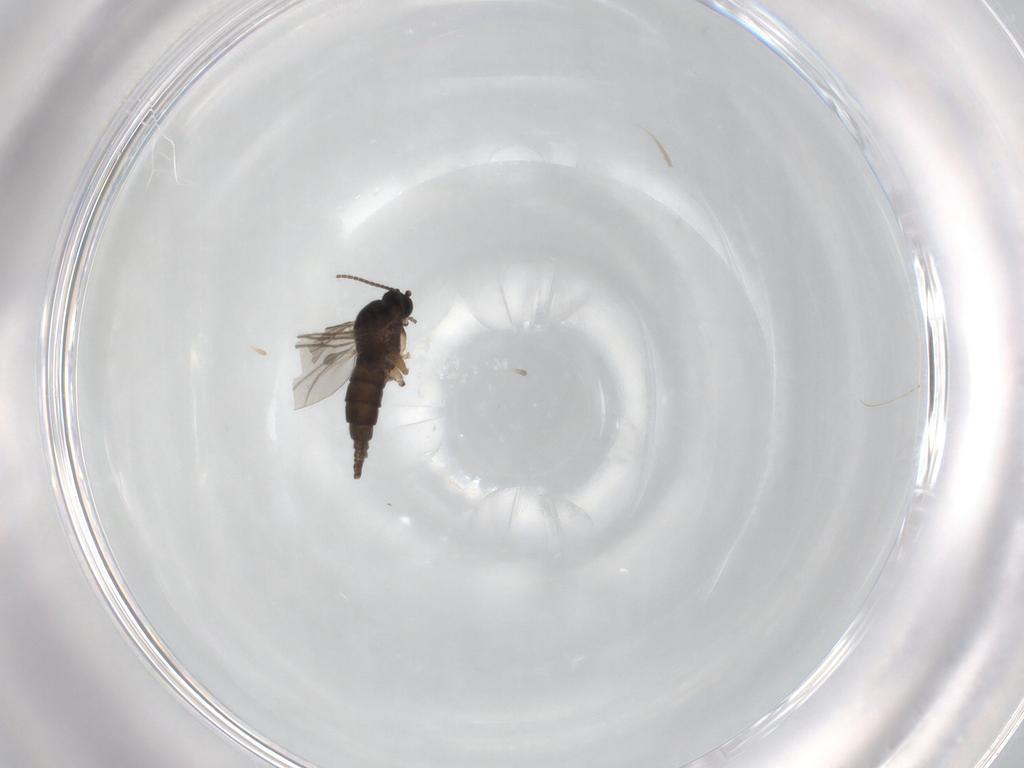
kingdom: Animalia
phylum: Arthropoda
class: Insecta
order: Diptera
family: Sciaridae
